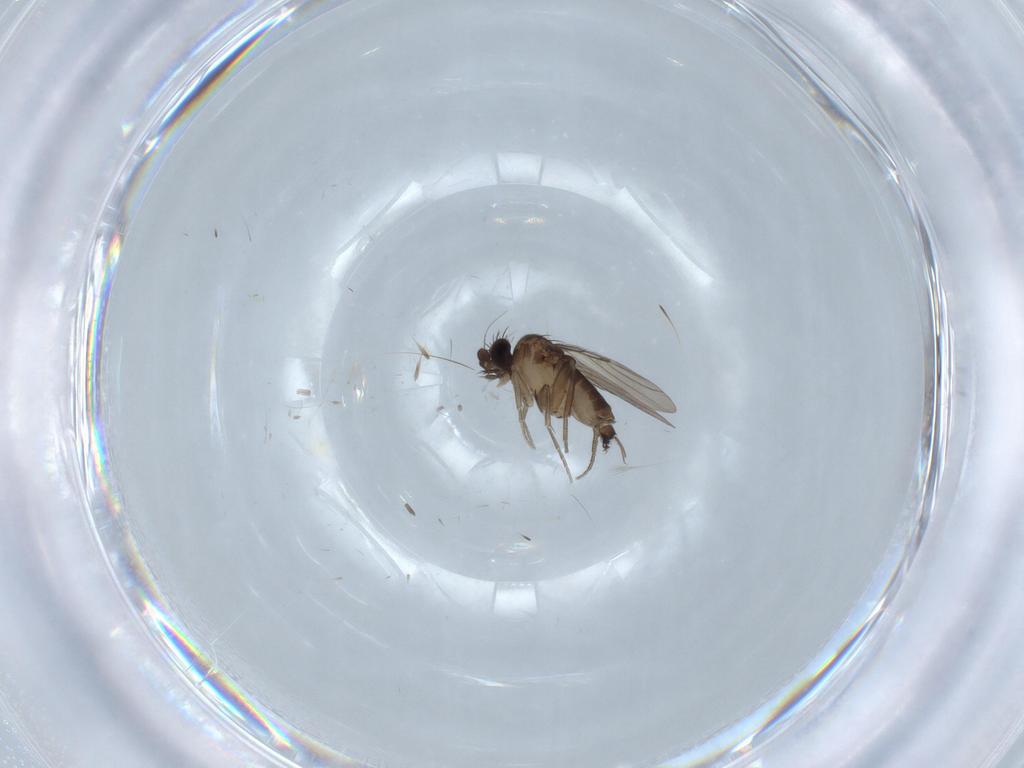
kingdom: Animalia
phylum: Arthropoda
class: Insecta
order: Diptera
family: Phoridae
